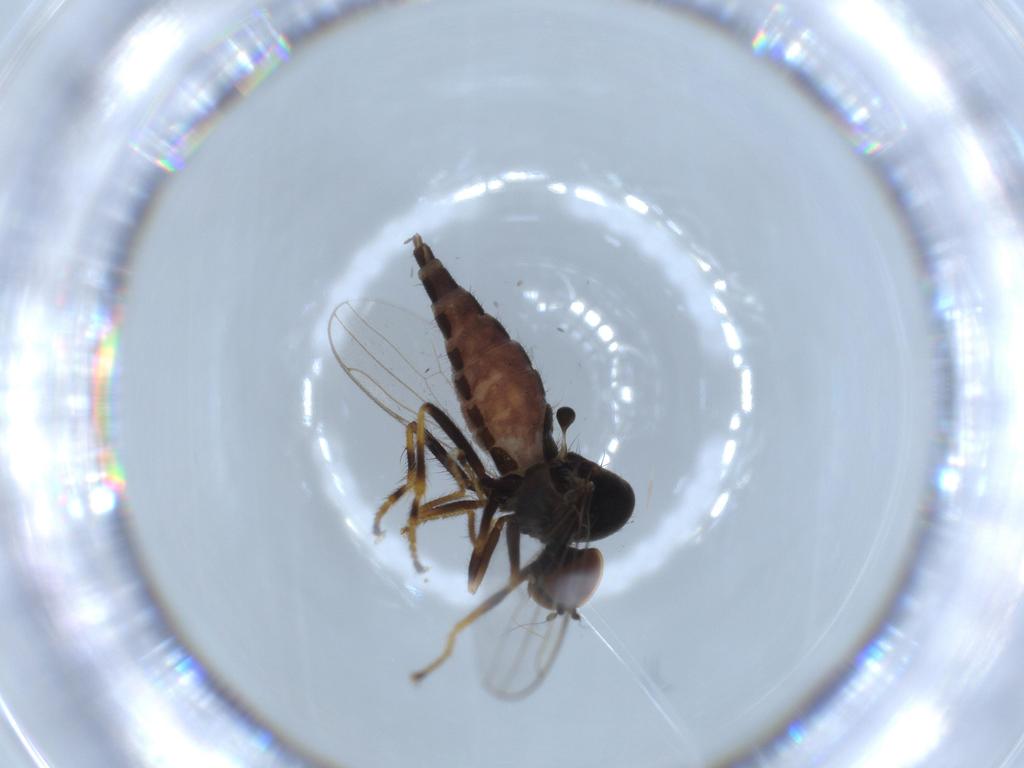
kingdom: Animalia
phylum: Arthropoda
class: Insecta
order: Diptera
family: Hybotidae
